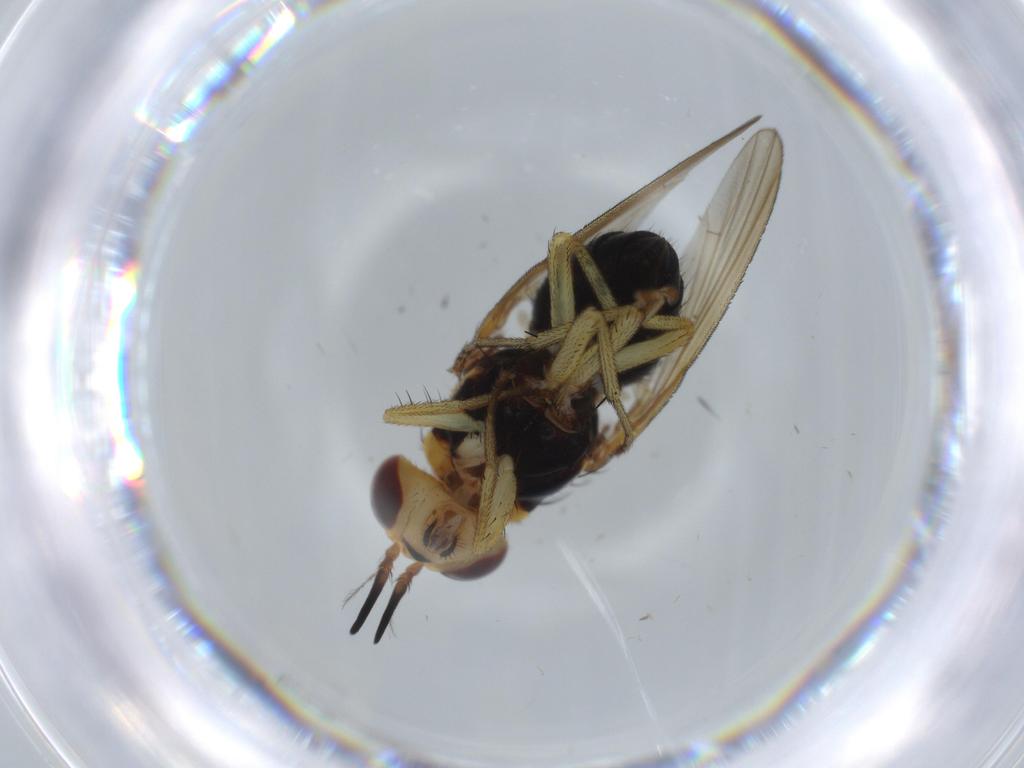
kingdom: Animalia
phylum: Arthropoda
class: Insecta
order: Diptera
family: Lauxaniidae
